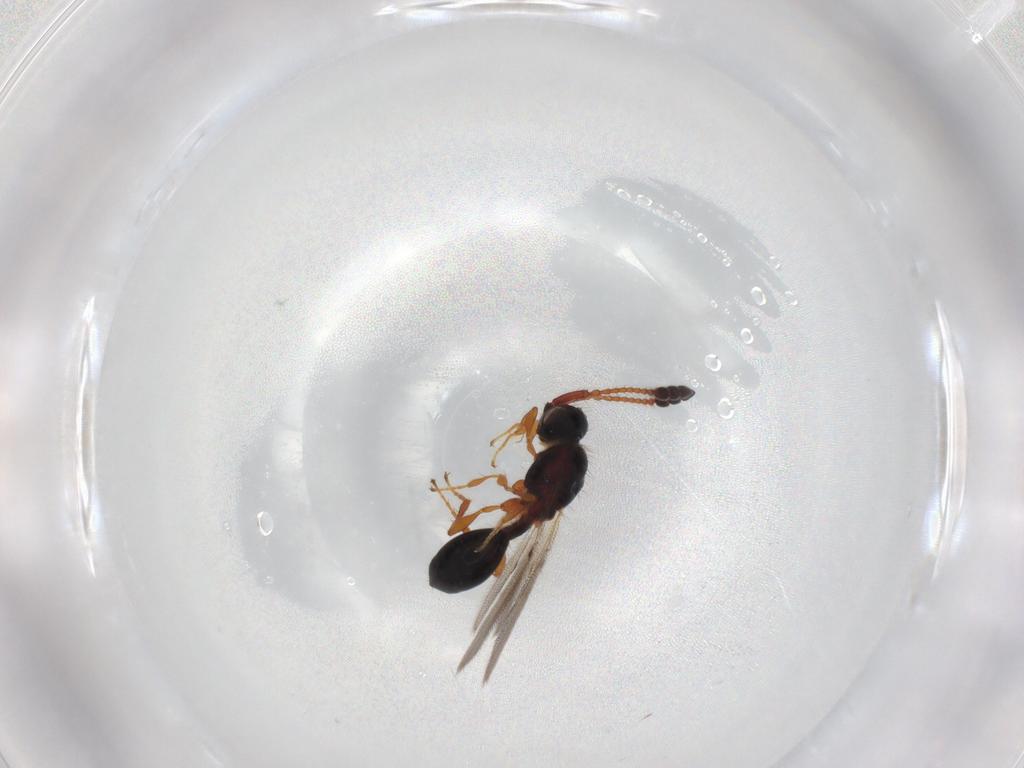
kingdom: Animalia
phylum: Arthropoda
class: Insecta
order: Hymenoptera
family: Diapriidae
